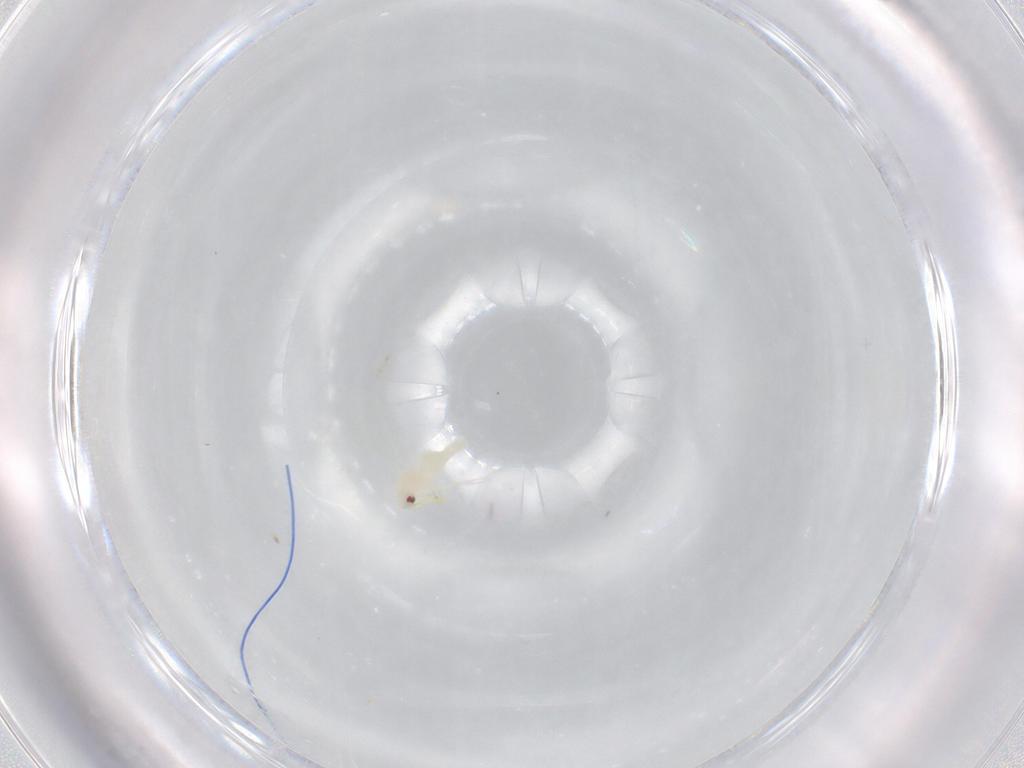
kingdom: Animalia
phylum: Arthropoda
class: Insecta
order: Hemiptera
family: Aleyrodidae
